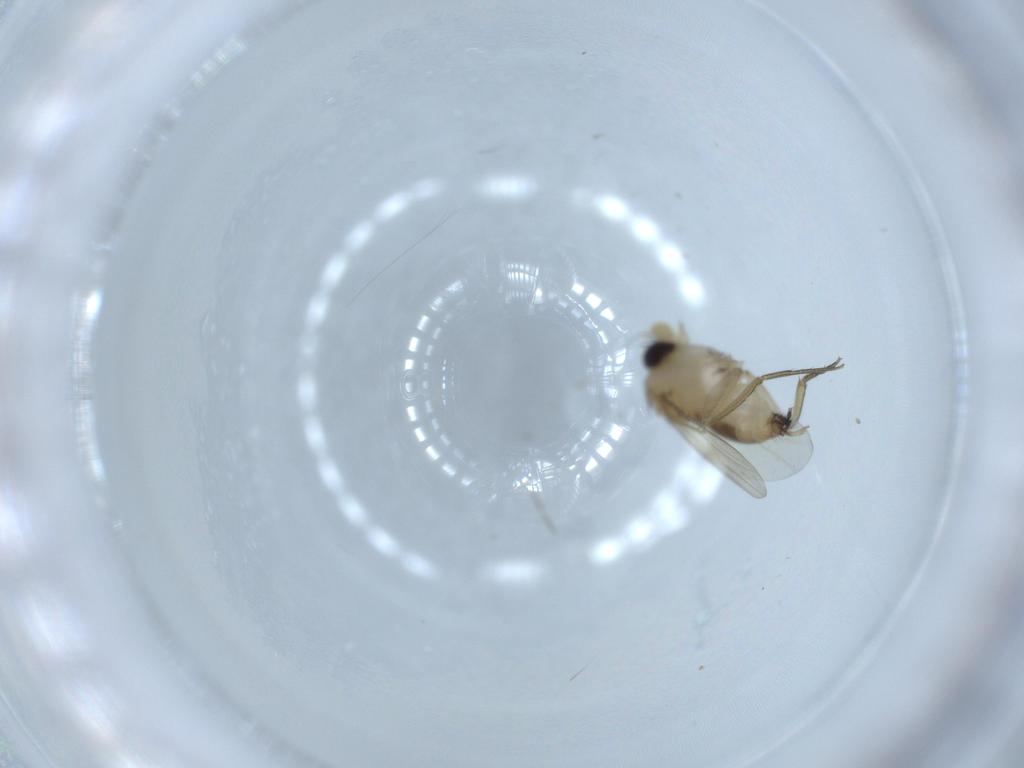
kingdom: Animalia
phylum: Arthropoda
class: Insecta
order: Diptera
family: Phoridae
